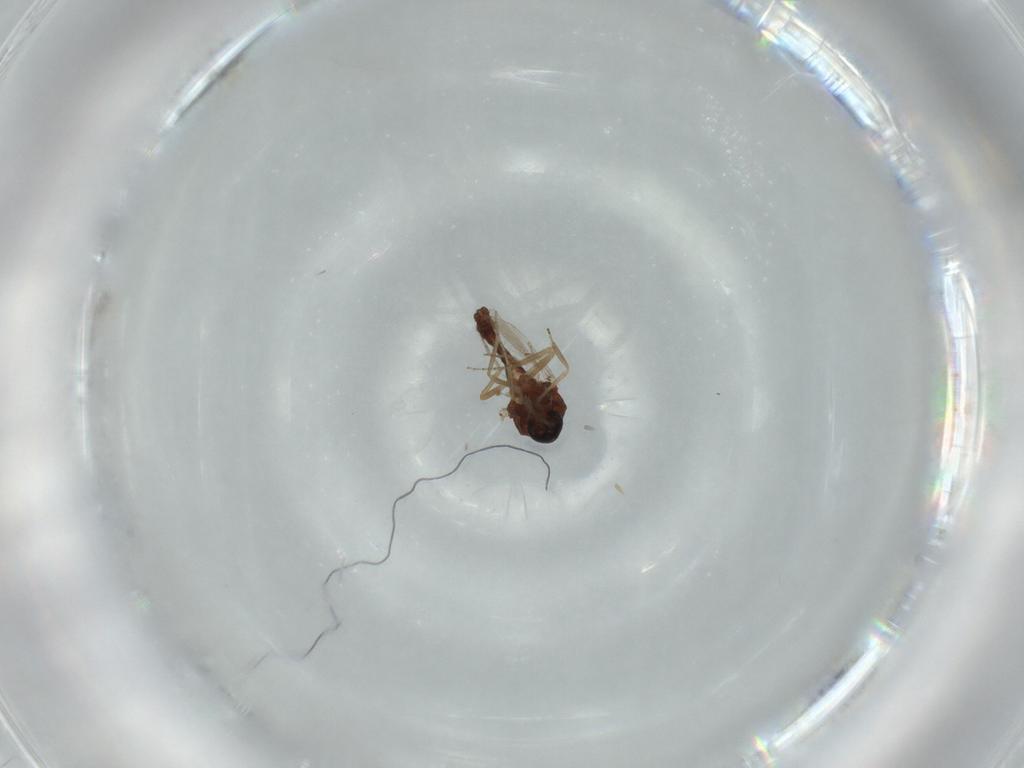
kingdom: Animalia
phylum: Arthropoda
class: Insecta
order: Diptera
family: Ceratopogonidae
